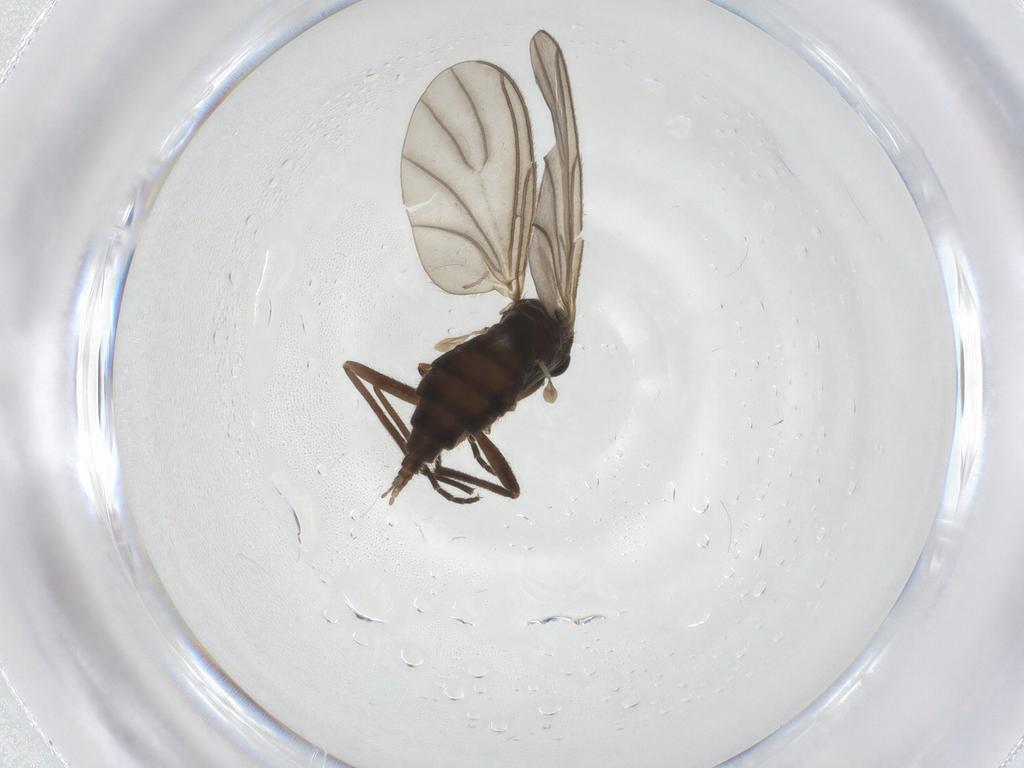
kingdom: Animalia
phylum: Arthropoda
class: Insecta
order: Diptera
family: Sciaridae
